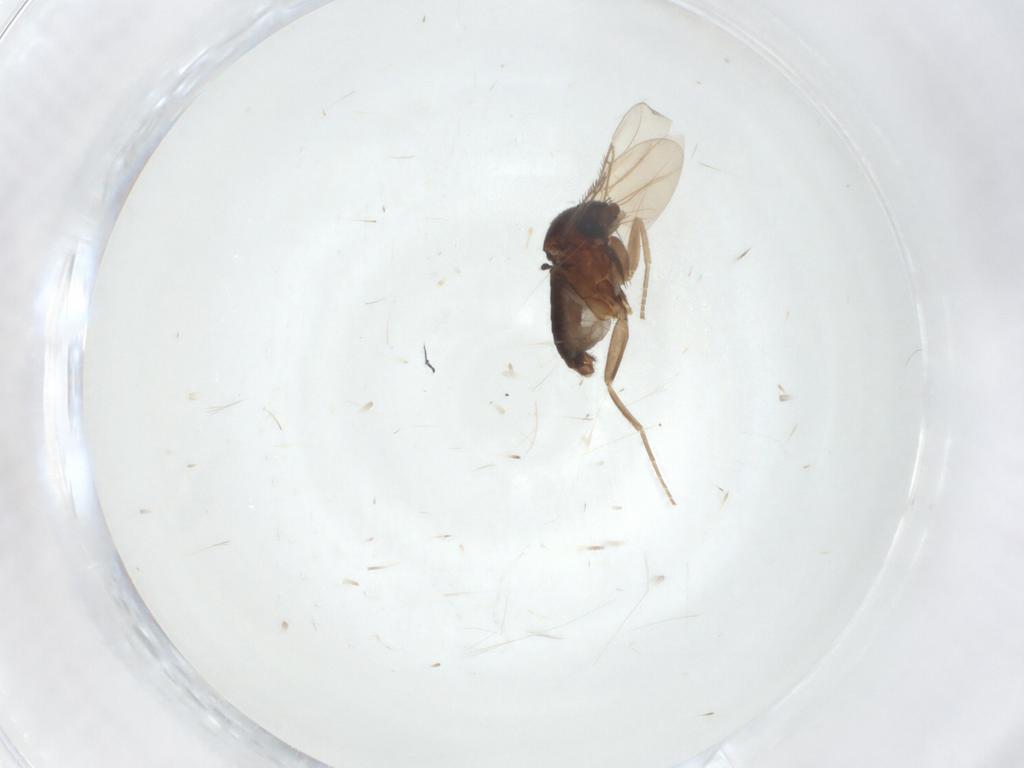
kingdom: Animalia
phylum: Arthropoda
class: Insecta
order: Diptera
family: Phoridae
